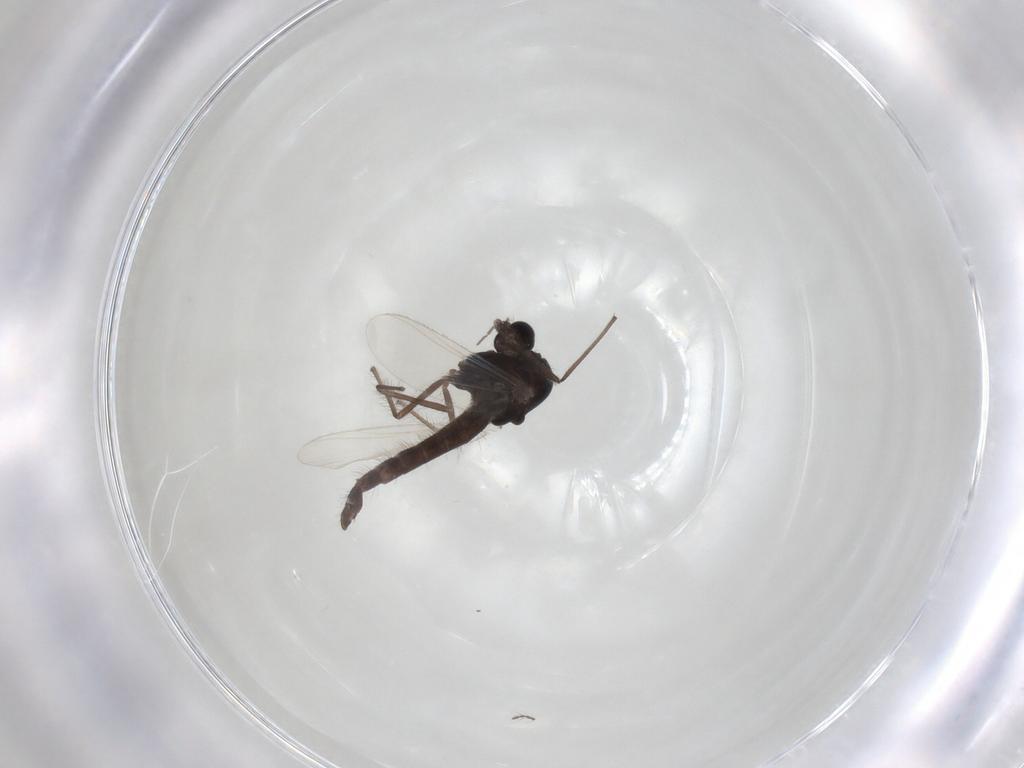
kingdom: Animalia
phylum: Arthropoda
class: Insecta
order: Diptera
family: Chironomidae
